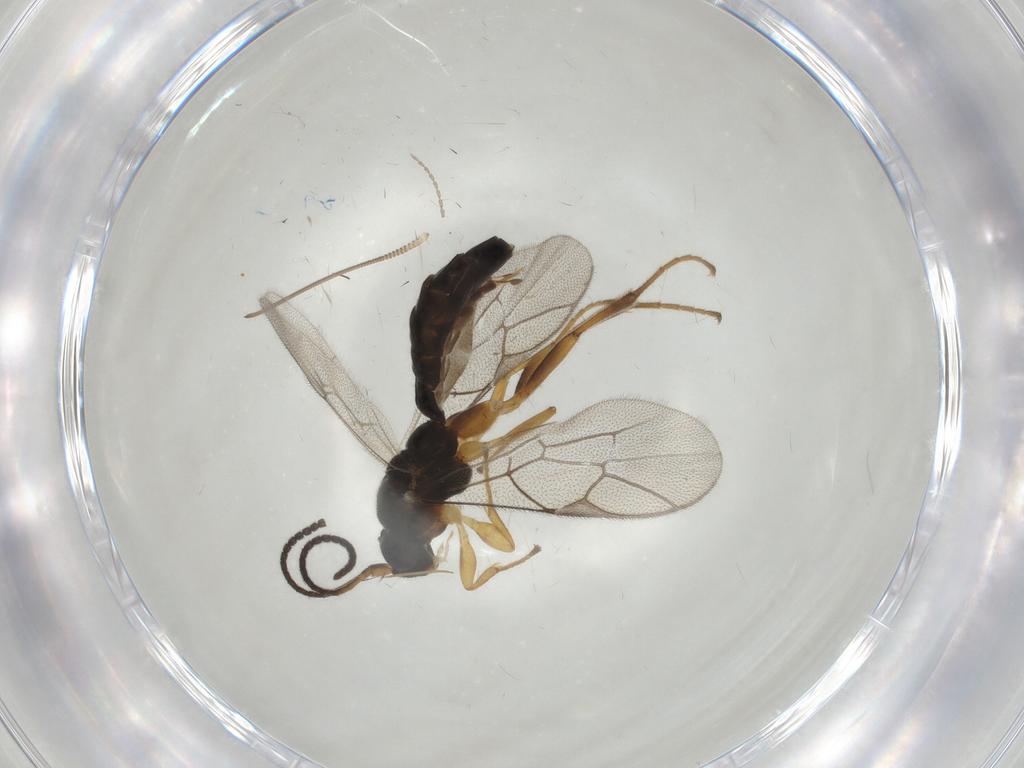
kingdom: Animalia
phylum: Arthropoda
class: Insecta
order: Hymenoptera
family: Ichneumonidae
